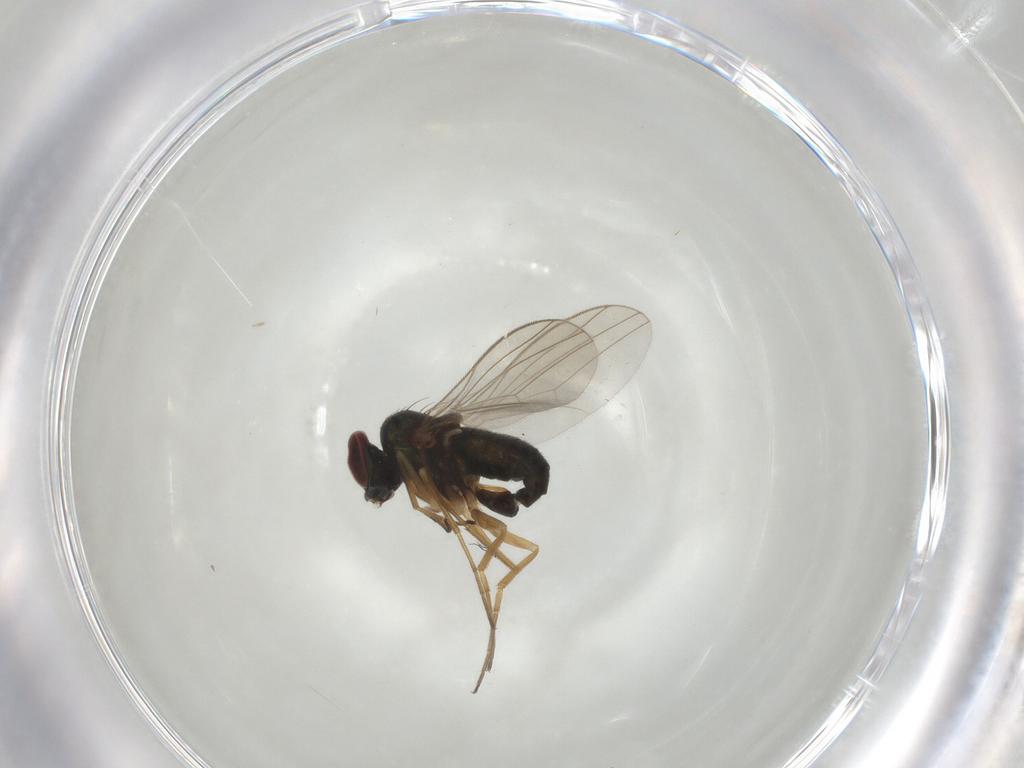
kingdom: Animalia
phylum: Arthropoda
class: Insecta
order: Diptera
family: Dolichopodidae
